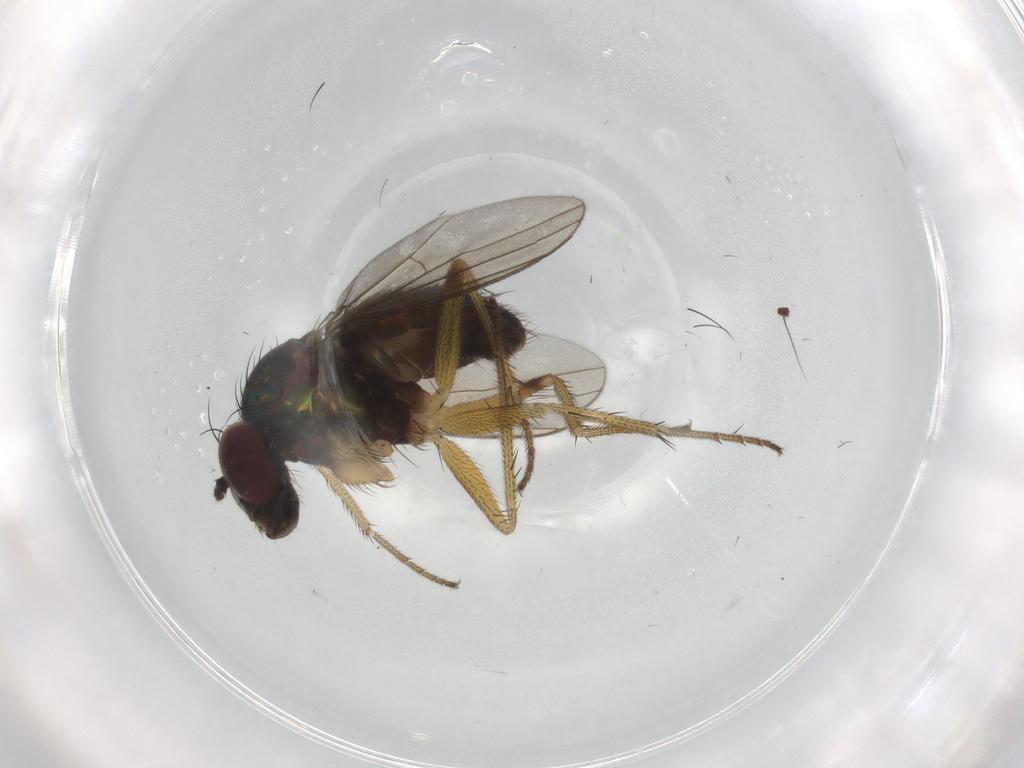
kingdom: Animalia
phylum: Arthropoda
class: Insecta
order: Diptera
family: Dolichopodidae
